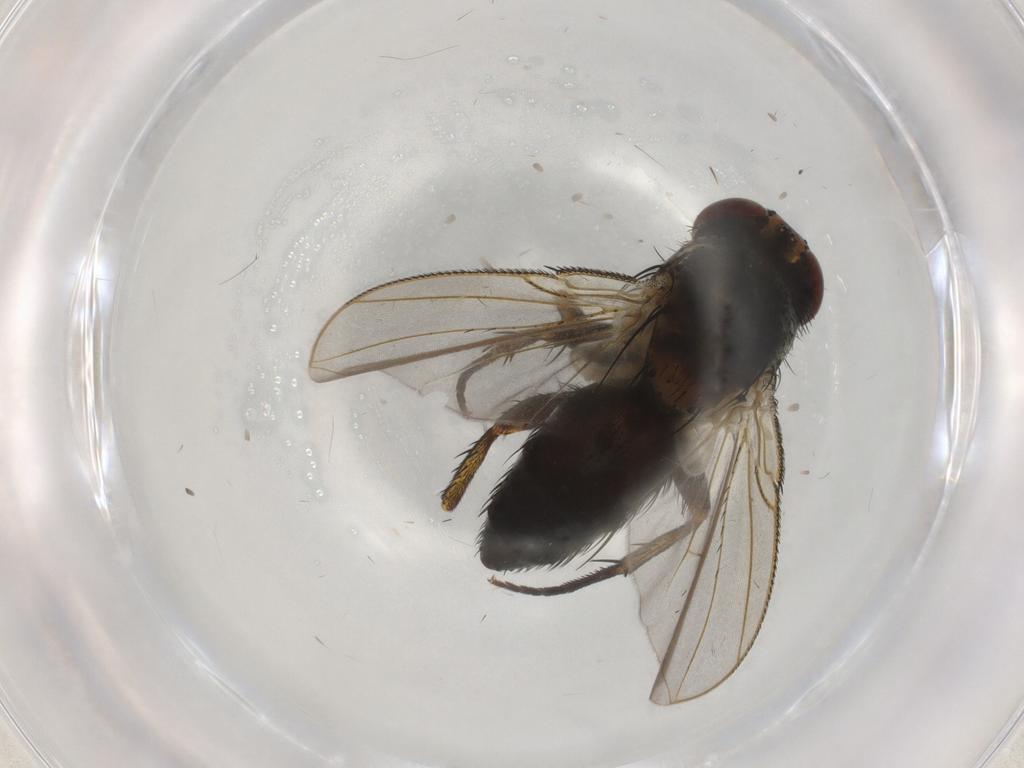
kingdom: Animalia
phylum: Arthropoda
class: Insecta
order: Diptera
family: Tachinidae
